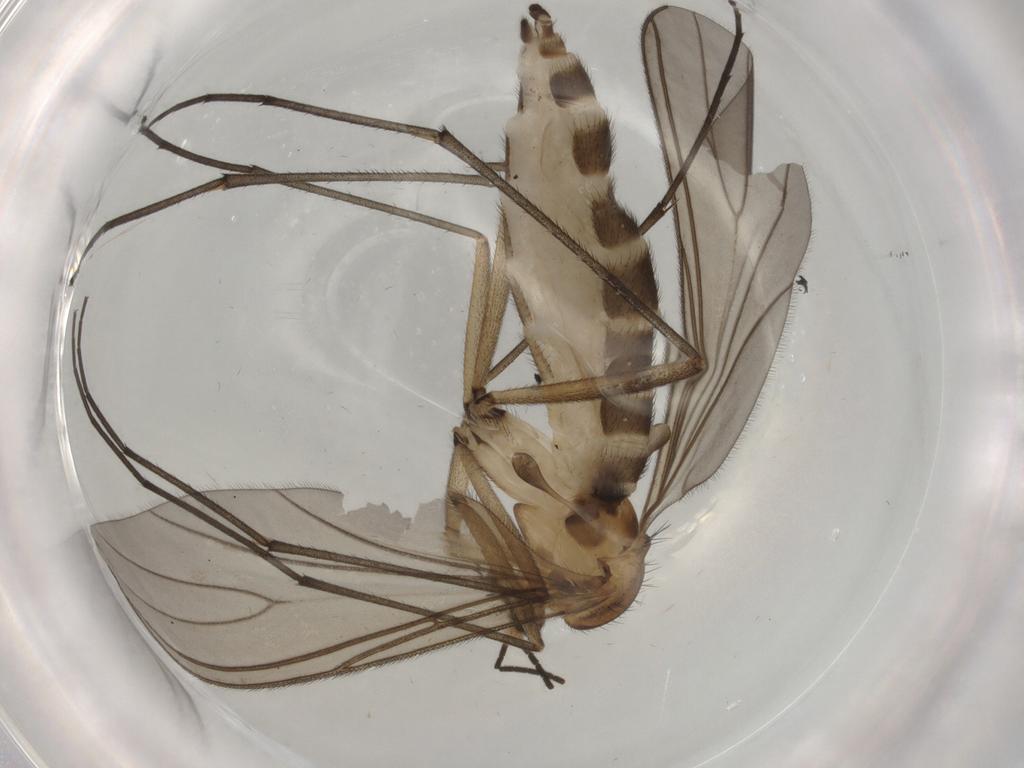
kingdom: Animalia
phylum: Arthropoda
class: Insecta
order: Diptera
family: Sciaridae
